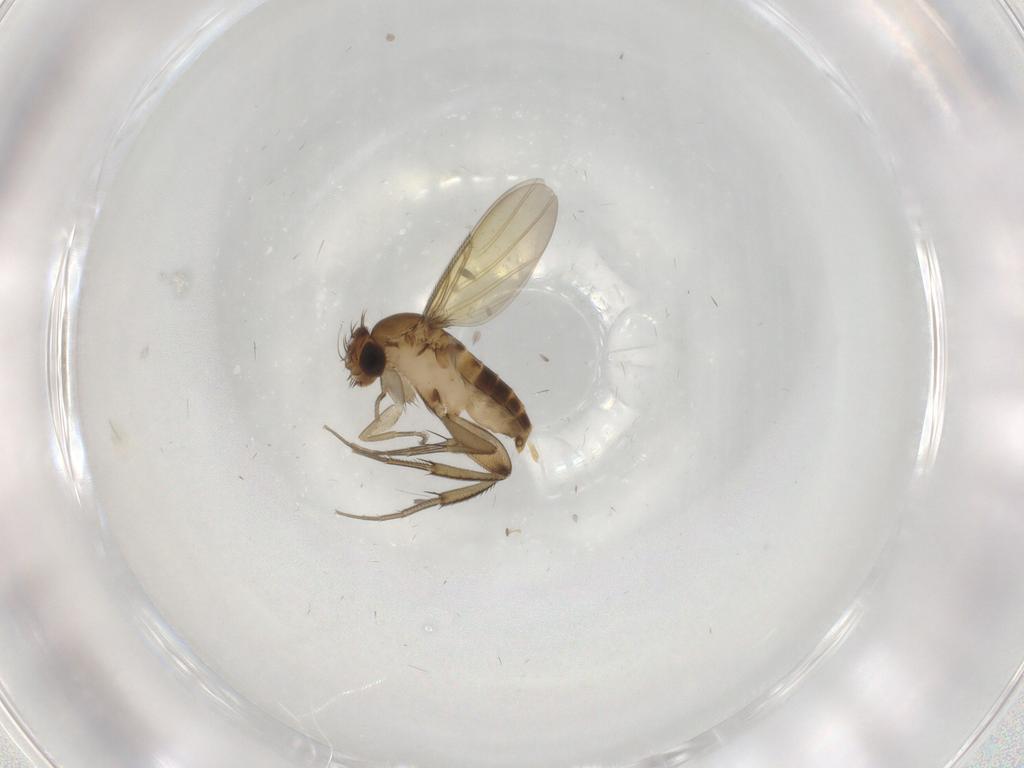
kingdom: Animalia
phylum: Arthropoda
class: Insecta
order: Diptera
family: Phoridae
